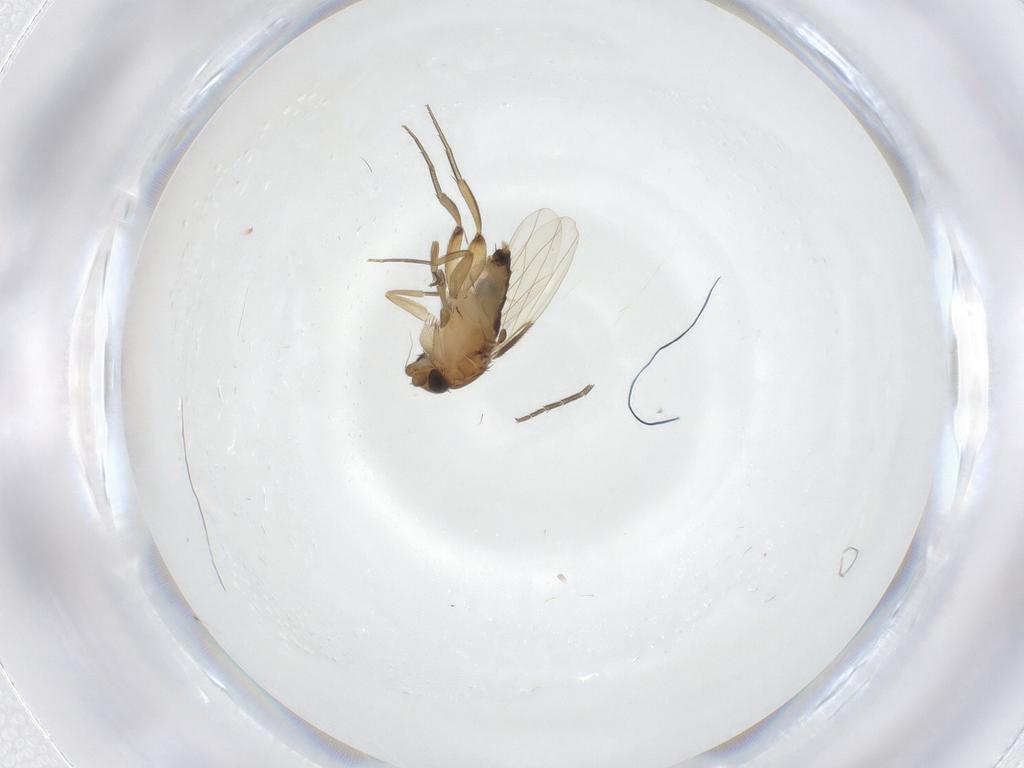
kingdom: Animalia
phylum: Arthropoda
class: Insecta
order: Diptera
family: Phoridae
